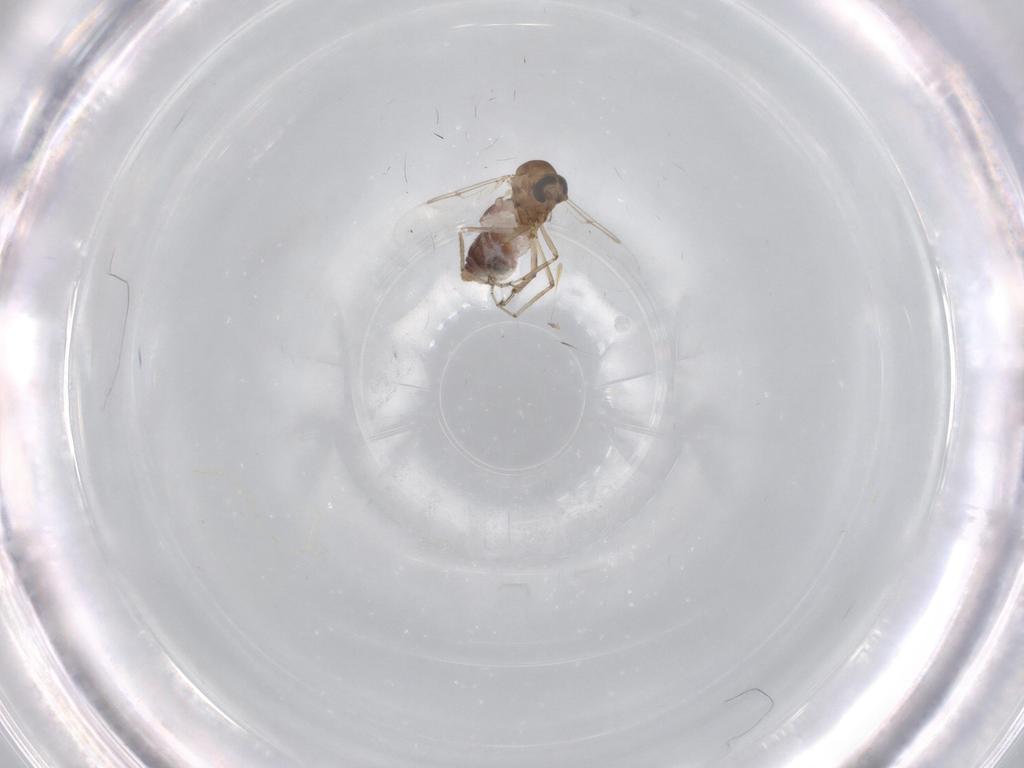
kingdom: Animalia
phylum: Arthropoda
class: Insecta
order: Diptera
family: Chironomidae
